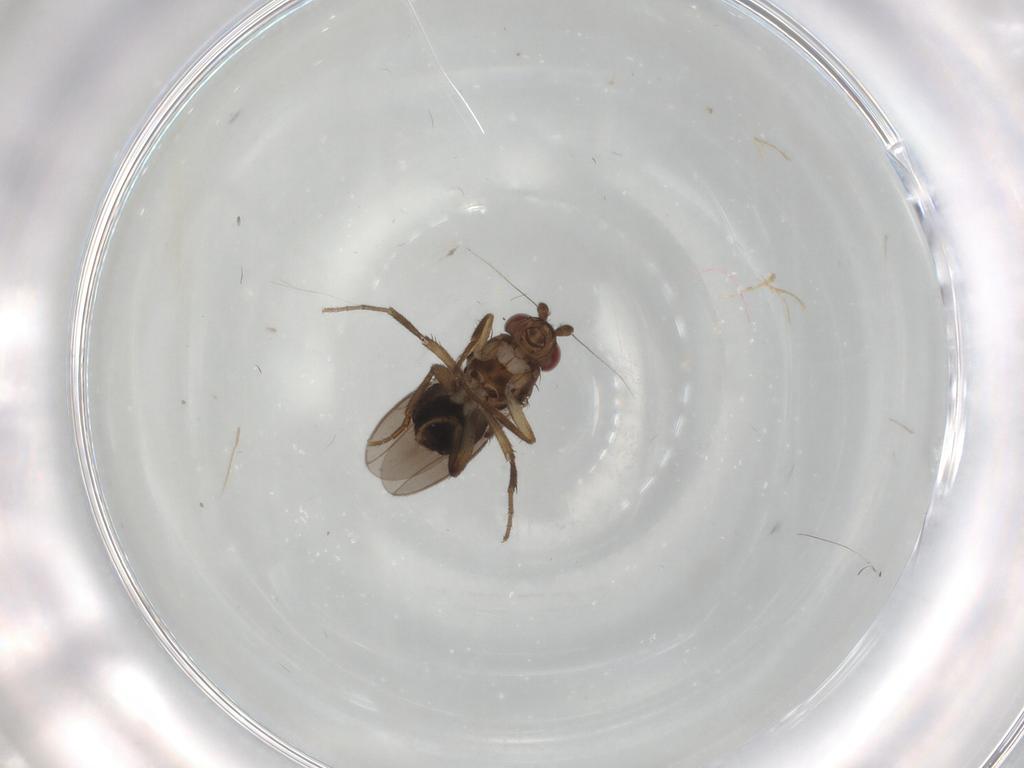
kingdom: Animalia
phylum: Arthropoda
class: Insecta
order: Diptera
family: Sphaeroceridae
